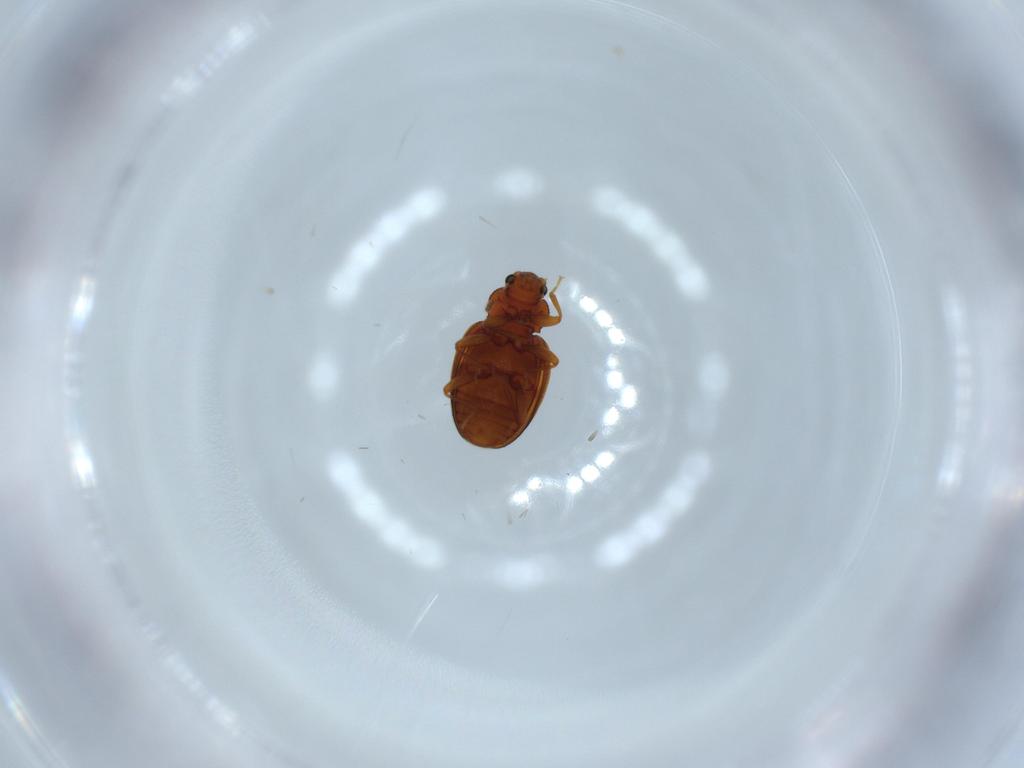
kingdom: Animalia
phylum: Arthropoda
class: Insecta
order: Coleoptera
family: Latridiidae
